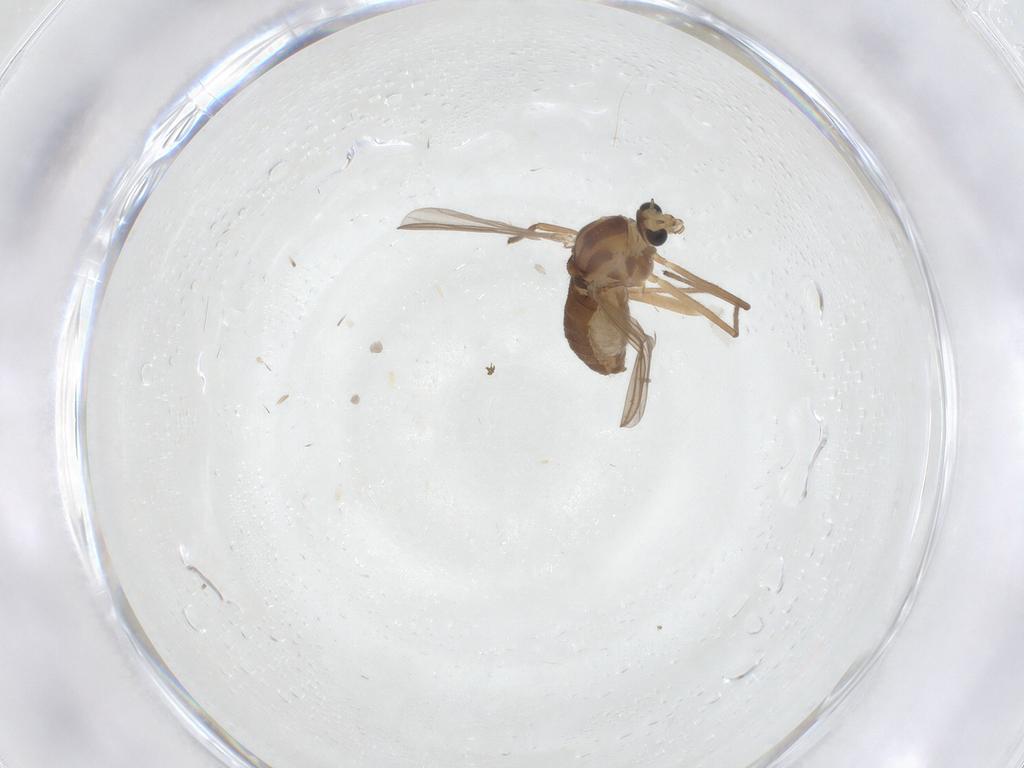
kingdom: Animalia
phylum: Arthropoda
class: Insecta
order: Diptera
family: Chironomidae
